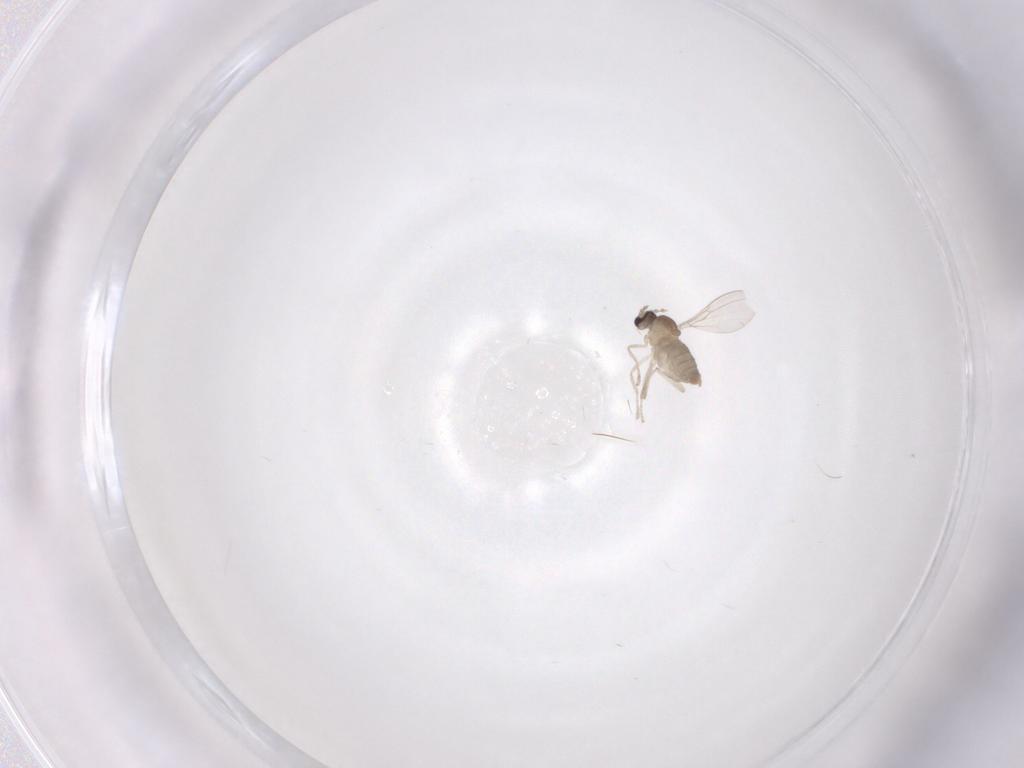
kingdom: Animalia
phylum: Arthropoda
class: Insecta
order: Diptera
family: Cecidomyiidae
